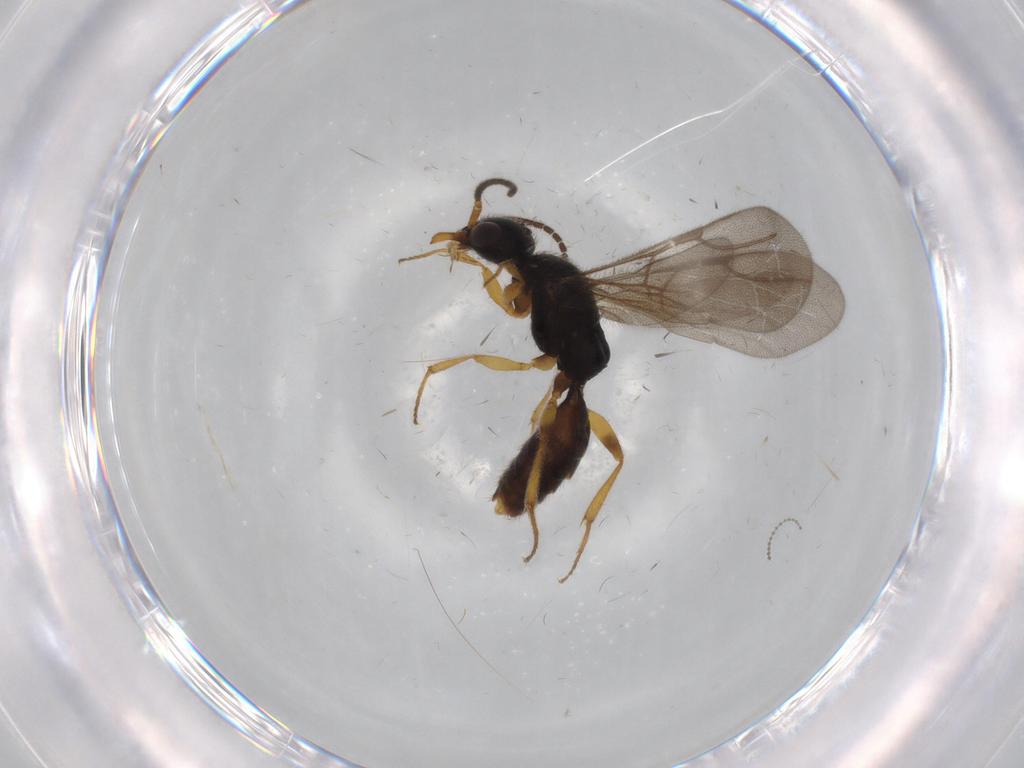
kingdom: Animalia
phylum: Arthropoda
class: Insecta
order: Hymenoptera
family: Bethylidae
